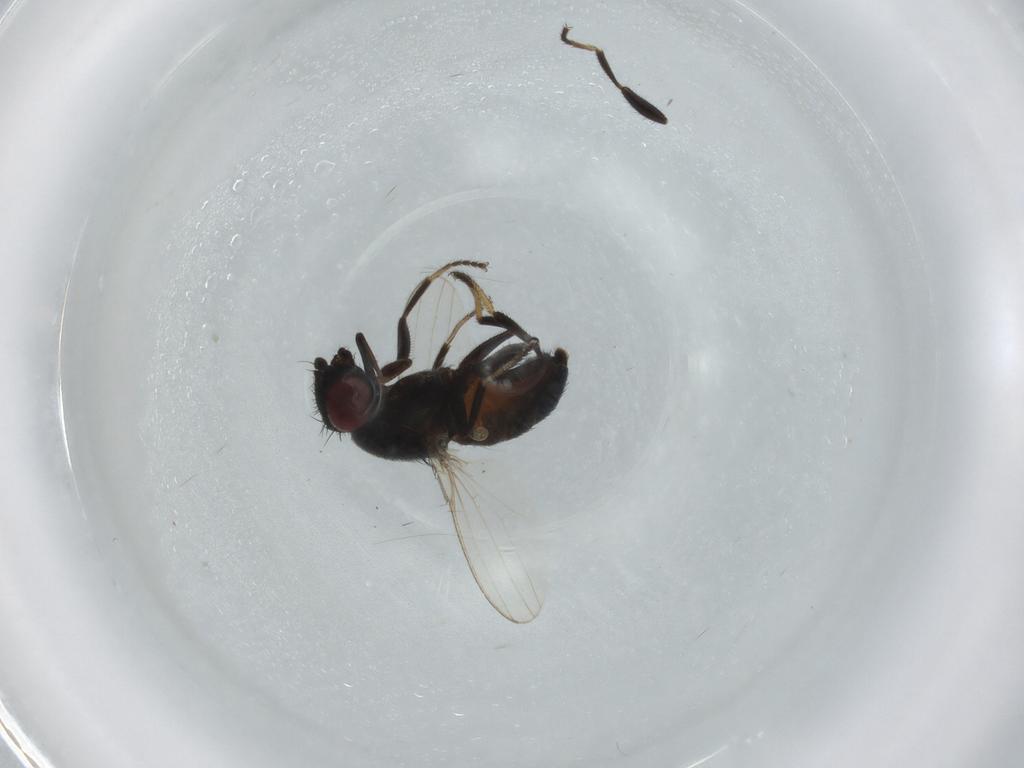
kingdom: Animalia
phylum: Arthropoda
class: Insecta
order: Diptera
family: Milichiidae
